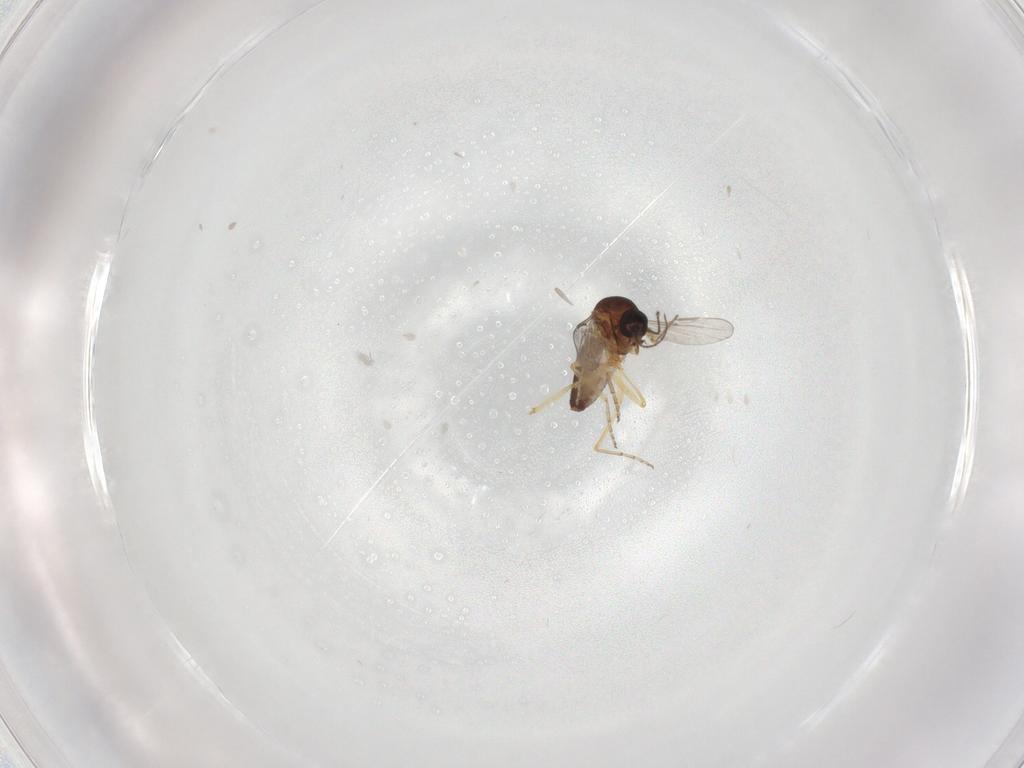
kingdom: Animalia
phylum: Arthropoda
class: Insecta
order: Diptera
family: Ceratopogonidae
